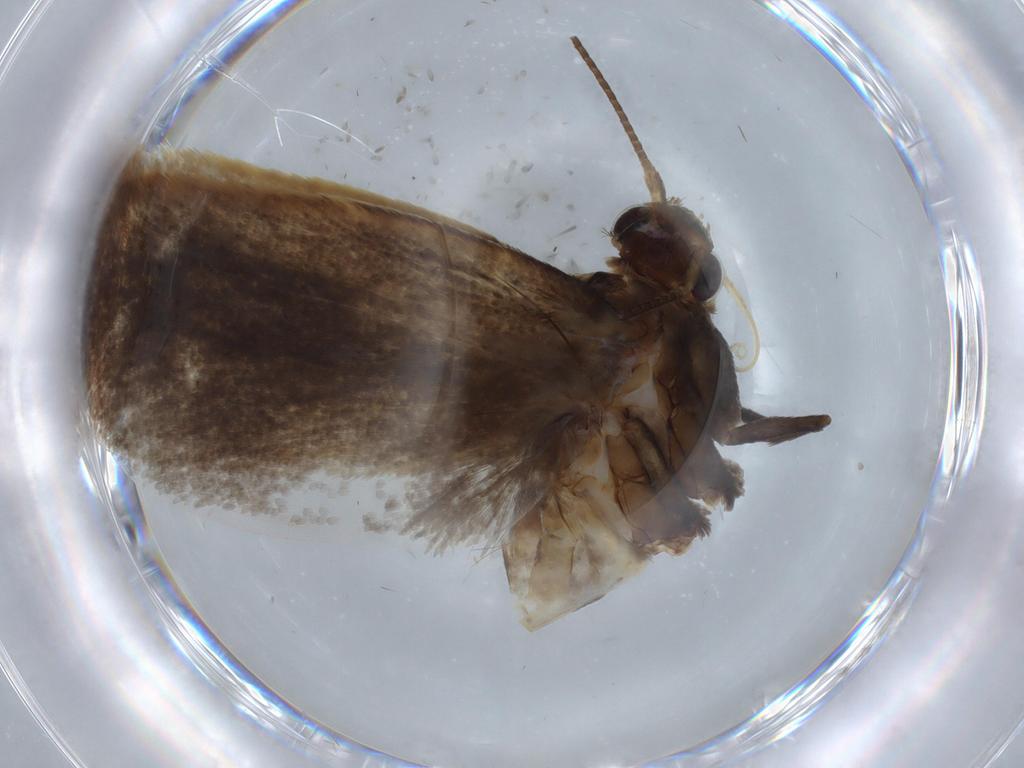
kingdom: Animalia
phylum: Arthropoda
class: Insecta
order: Lepidoptera
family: Oecophoridae
